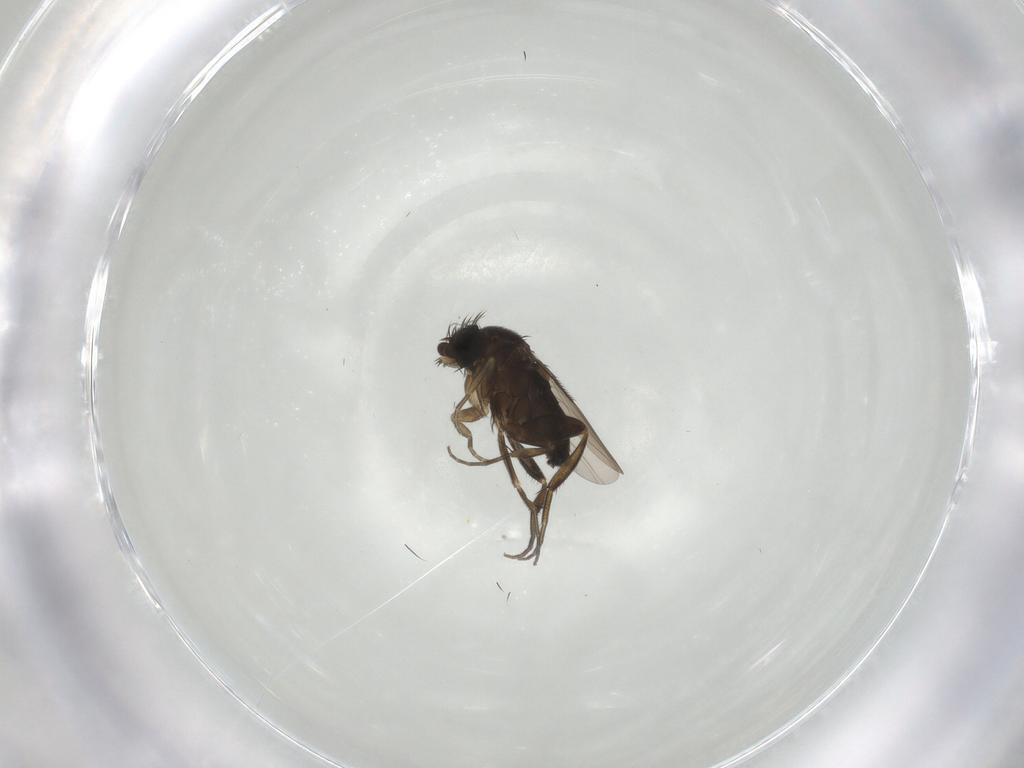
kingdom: Animalia
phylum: Arthropoda
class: Insecta
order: Diptera
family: Phoridae
